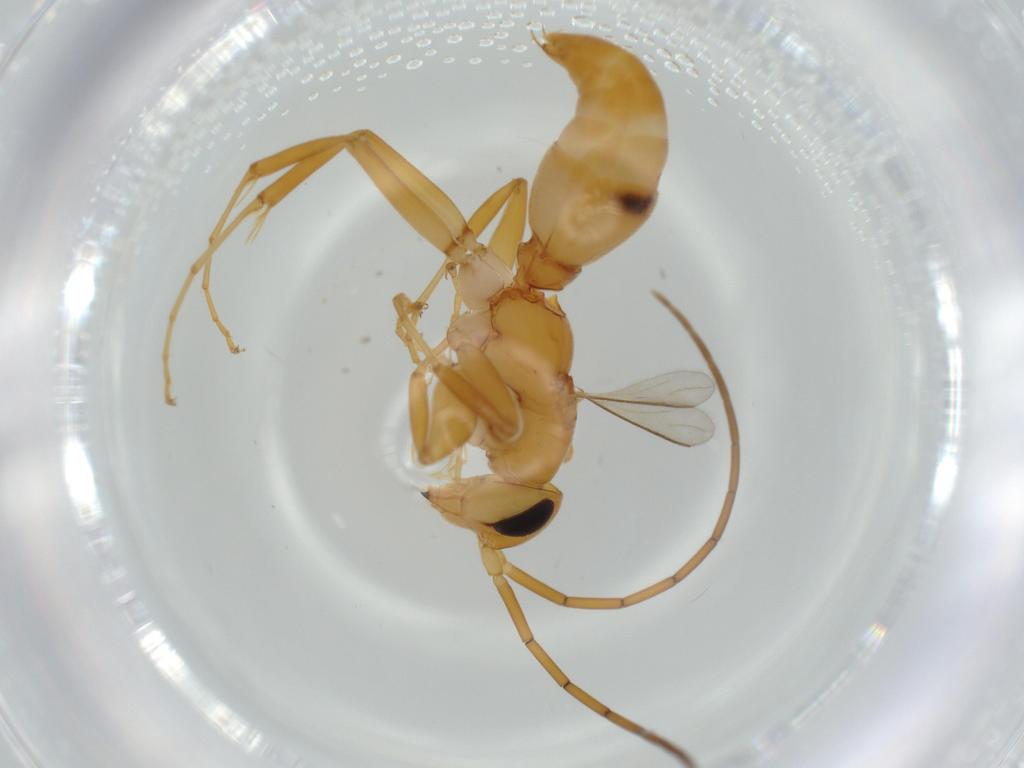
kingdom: Animalia
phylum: Arthropoda
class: Insecta
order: Hymenoptera
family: Rhopalosomatidae
